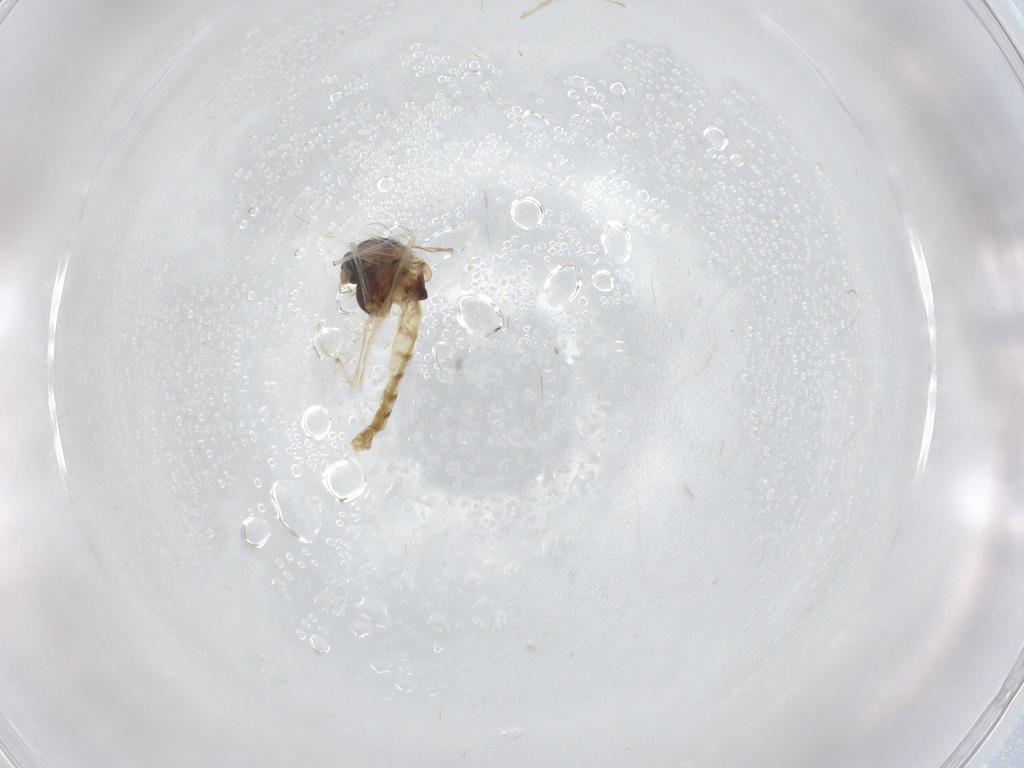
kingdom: Animalia
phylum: Arthropoda
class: Insecta
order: Diptera
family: Chironomidae
